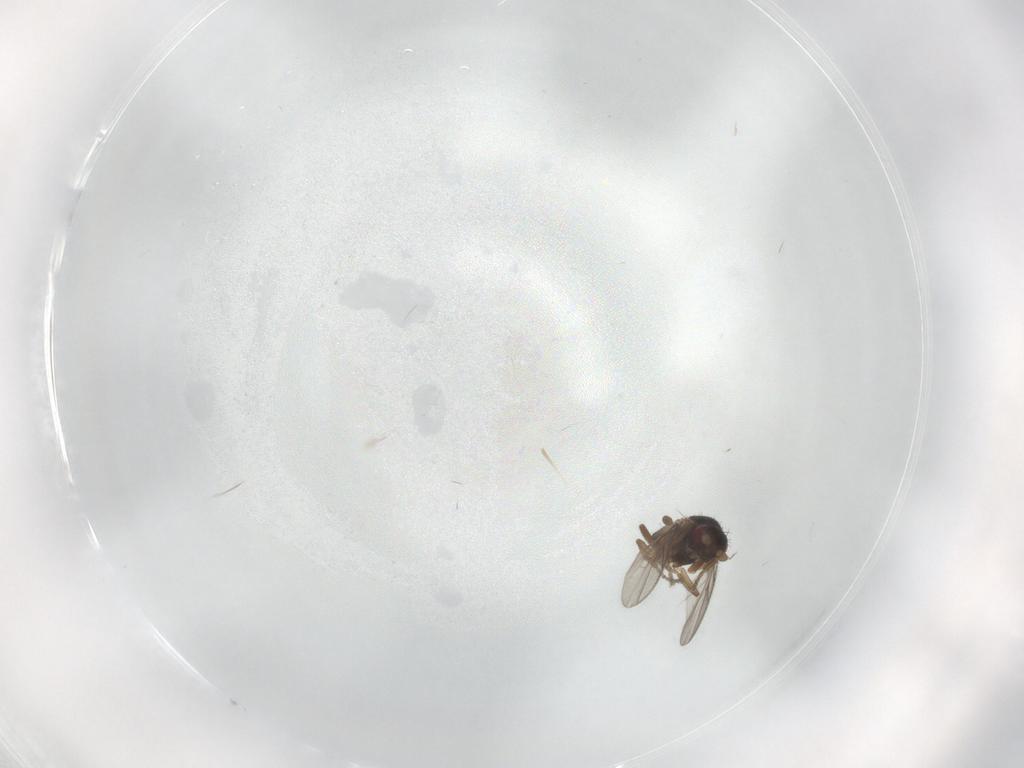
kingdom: Animalia
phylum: Arthropoda
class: Insecta
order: Diptera
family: Sphaeroceridae
